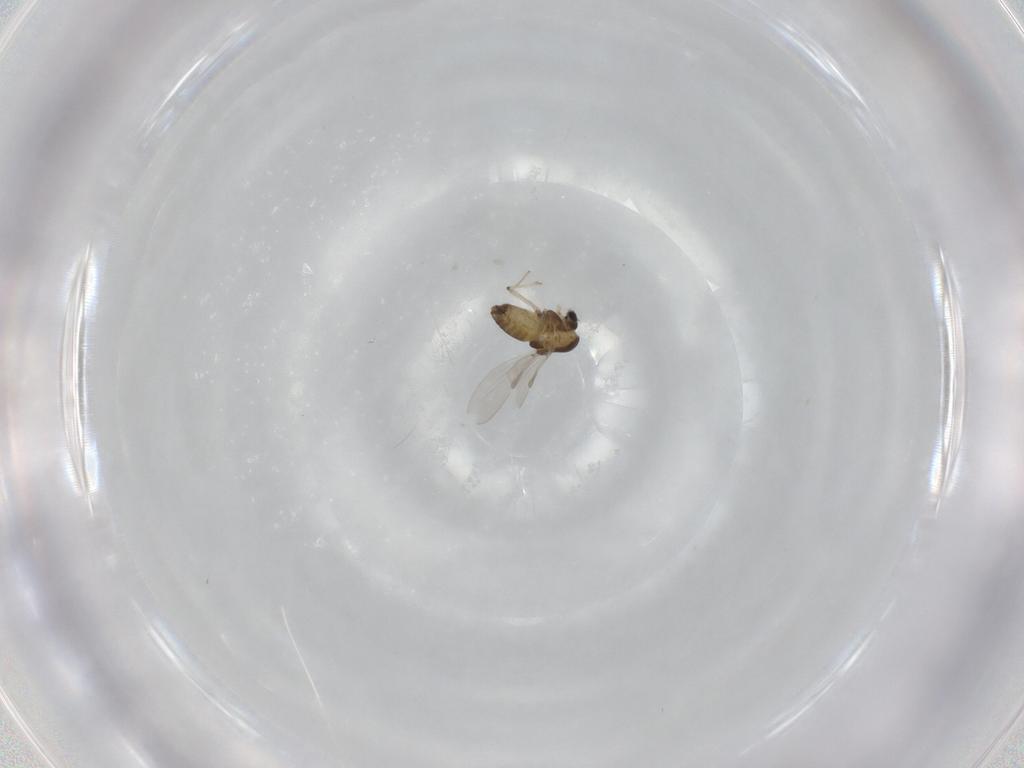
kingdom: Animalia
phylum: Arthropoda
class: Insecta
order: Diptera
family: Chironomidae
